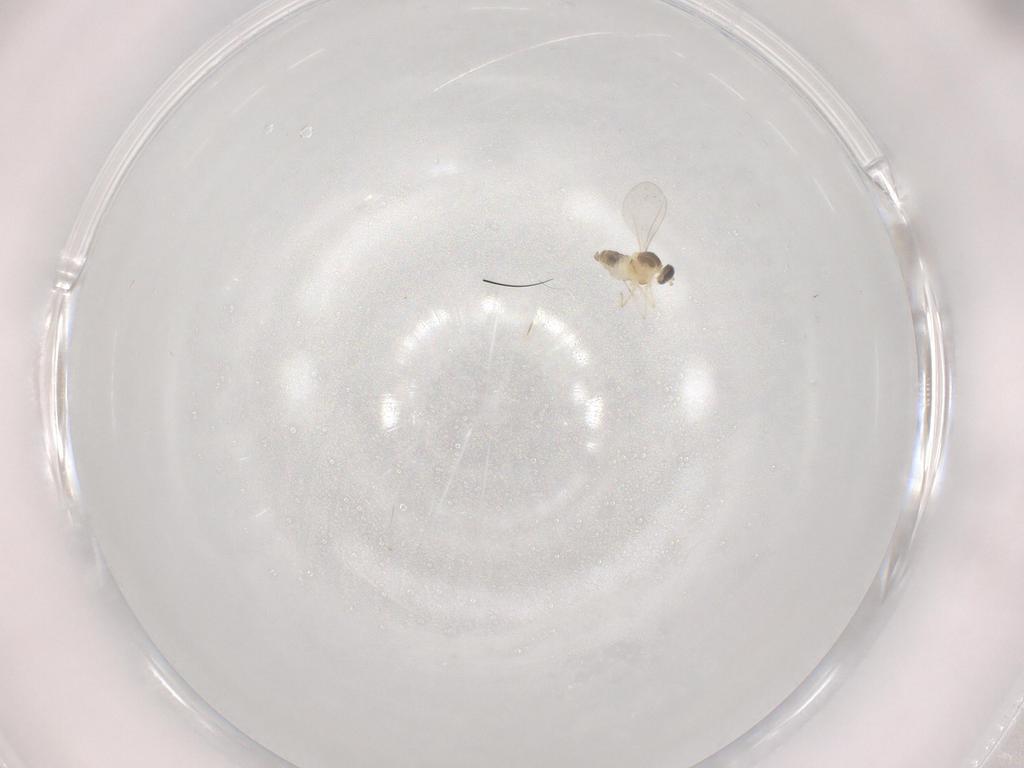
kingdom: Animalia
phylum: Arthropoda
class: Insecta
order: Diptera
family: Cecidomyiidae
